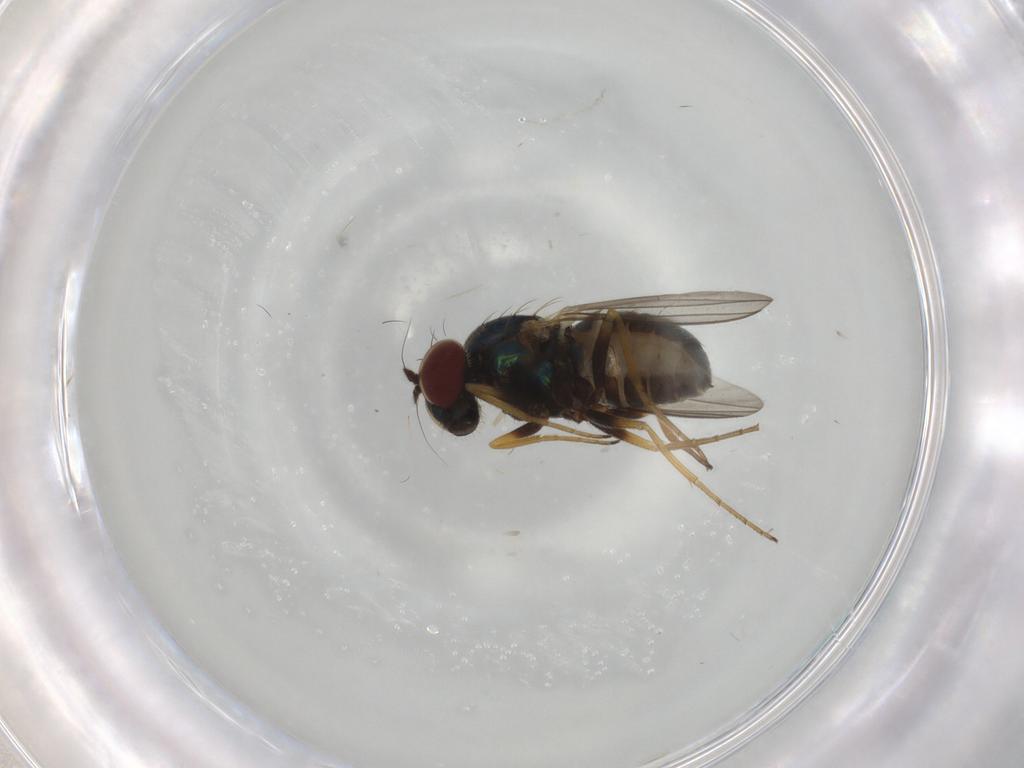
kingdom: Animalia
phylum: Arthropoda
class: Insecta
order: Diptera
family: Dolichopodidae
